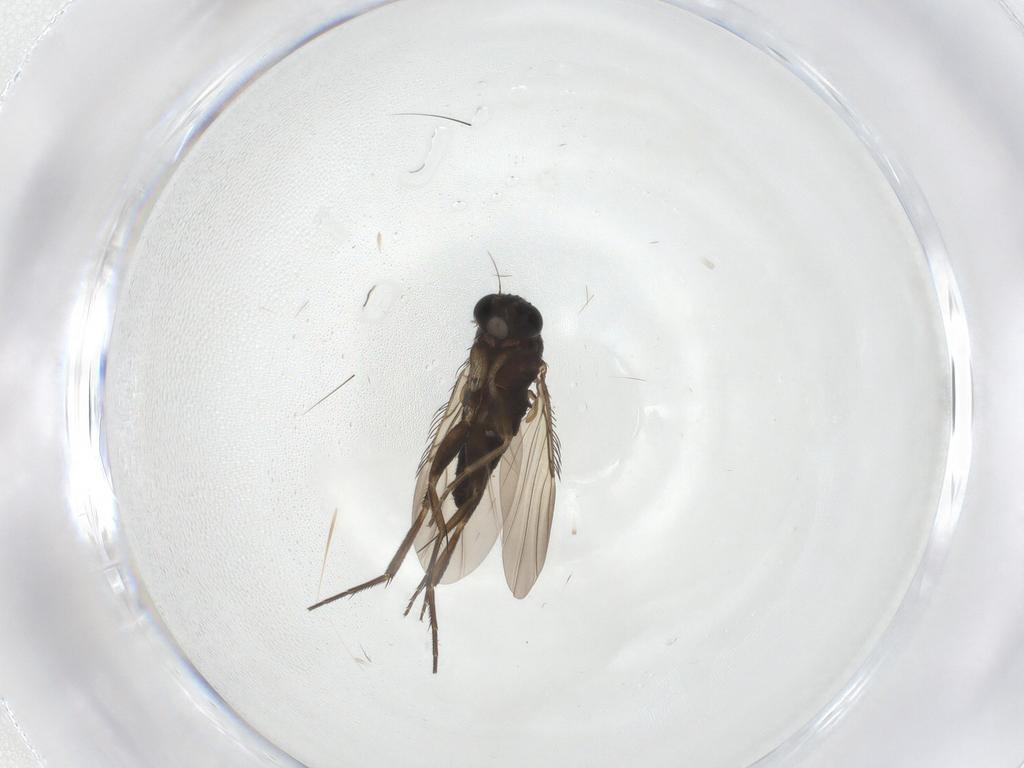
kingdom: Animalia
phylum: Arthropoda
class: Insecta
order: Diptera
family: Phoridae
